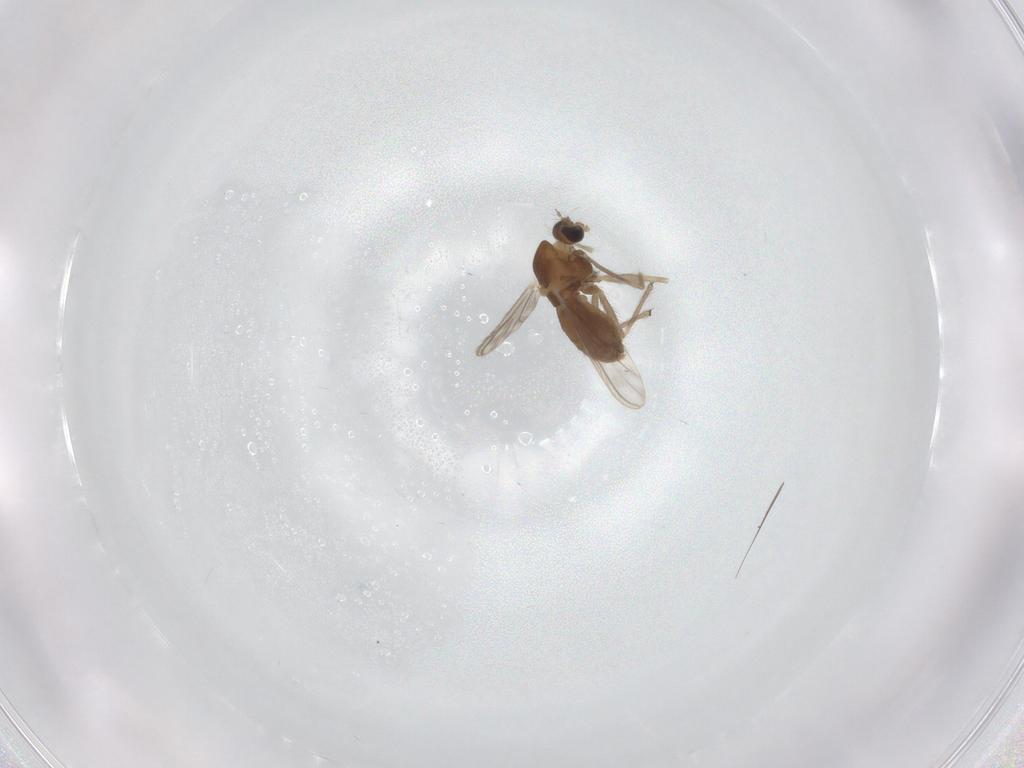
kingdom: Animalia
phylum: Arthropoda
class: Insecta
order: Diptera
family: Chironomidae
